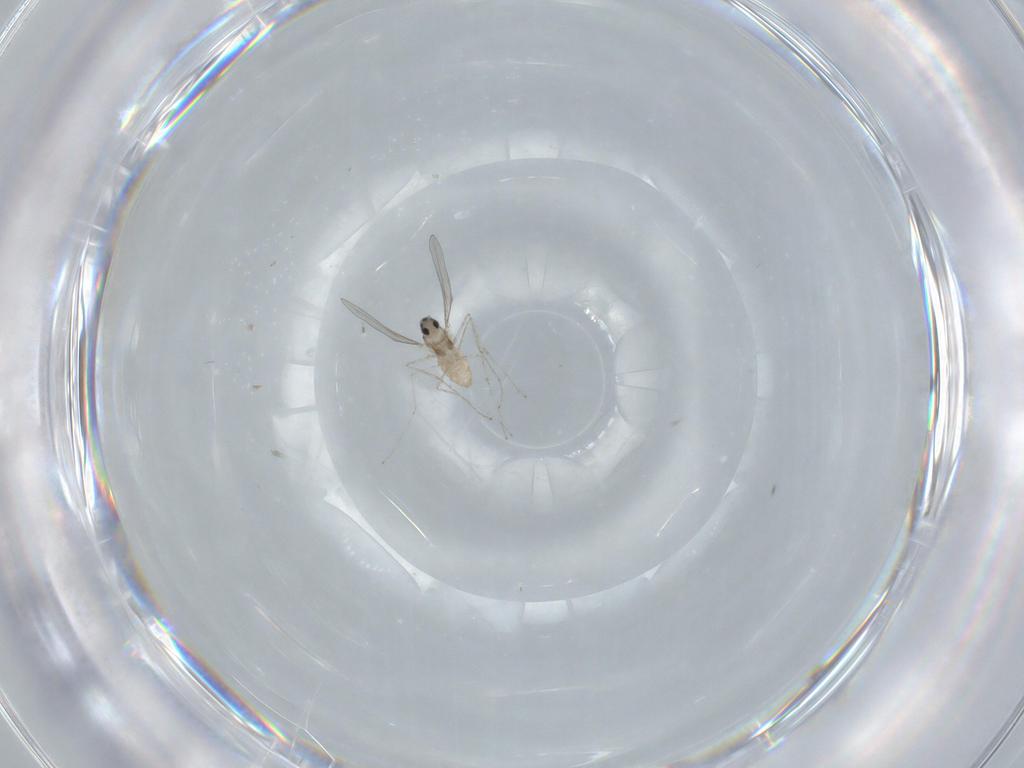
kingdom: Animalia
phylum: Arthropoda
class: Insecta
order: Diptera
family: Cecidomyiidae
